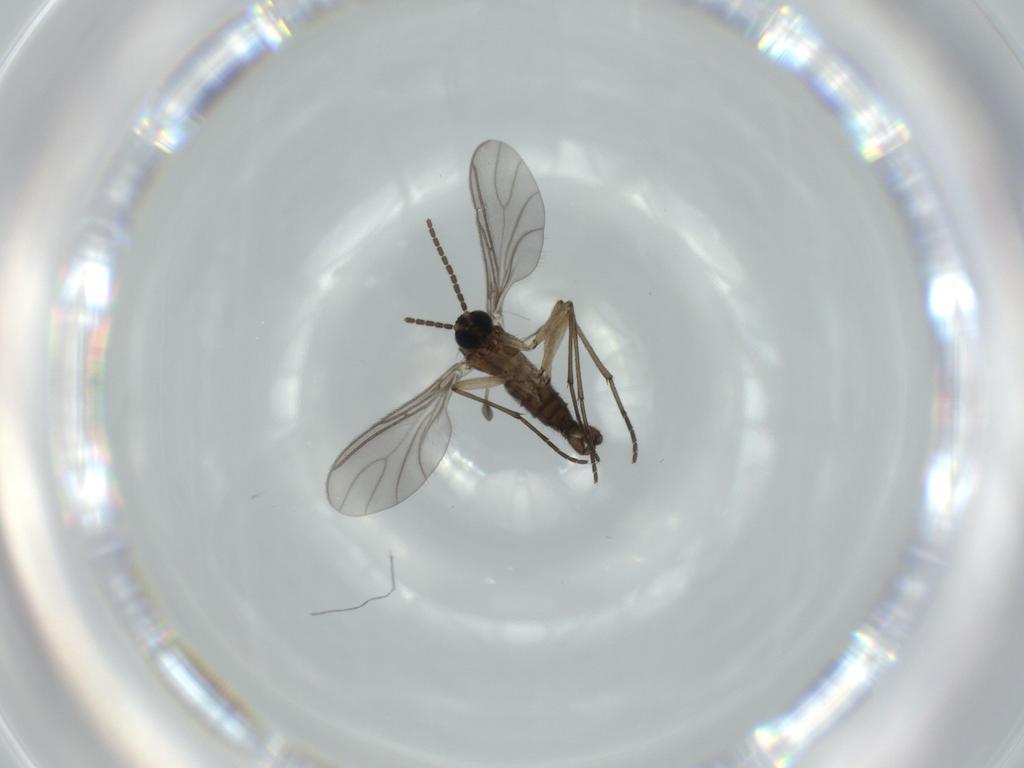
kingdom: Animalia
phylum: Arthropoda
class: Insecta
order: Diptera
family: Sciaridae
